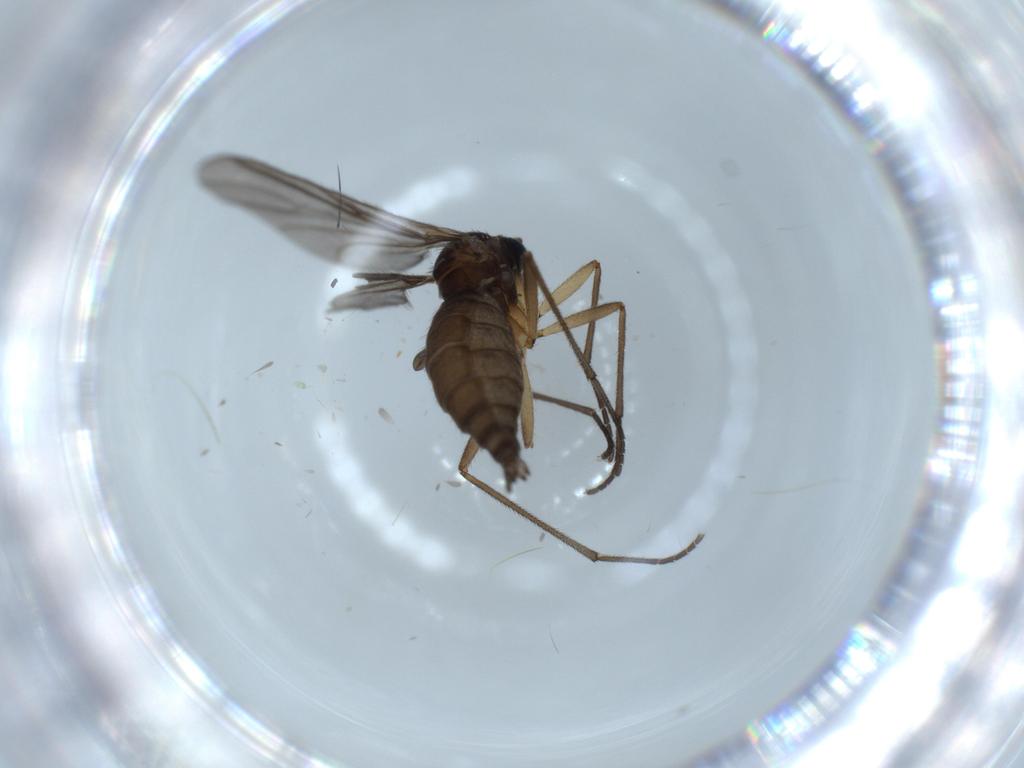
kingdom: Animalia
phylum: Arthropoda
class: Insecta
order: Diptera
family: Sciaridae
